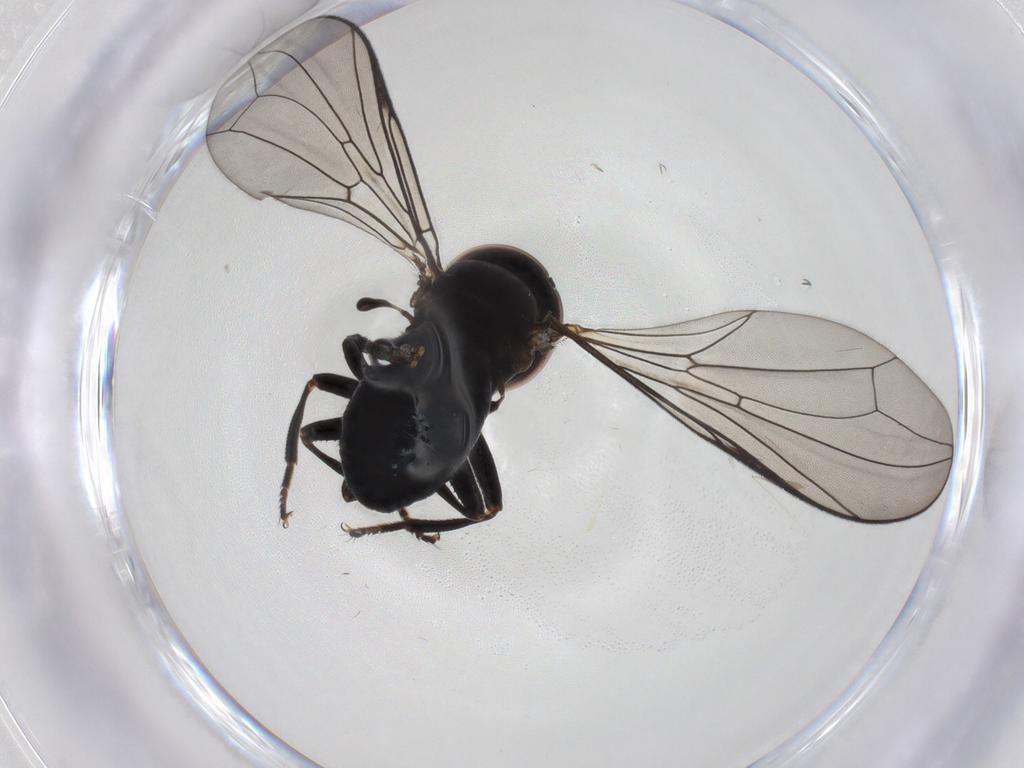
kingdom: Animalia
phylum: Arthropoda
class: Insecta
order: Diptera
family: Pipunculidae
